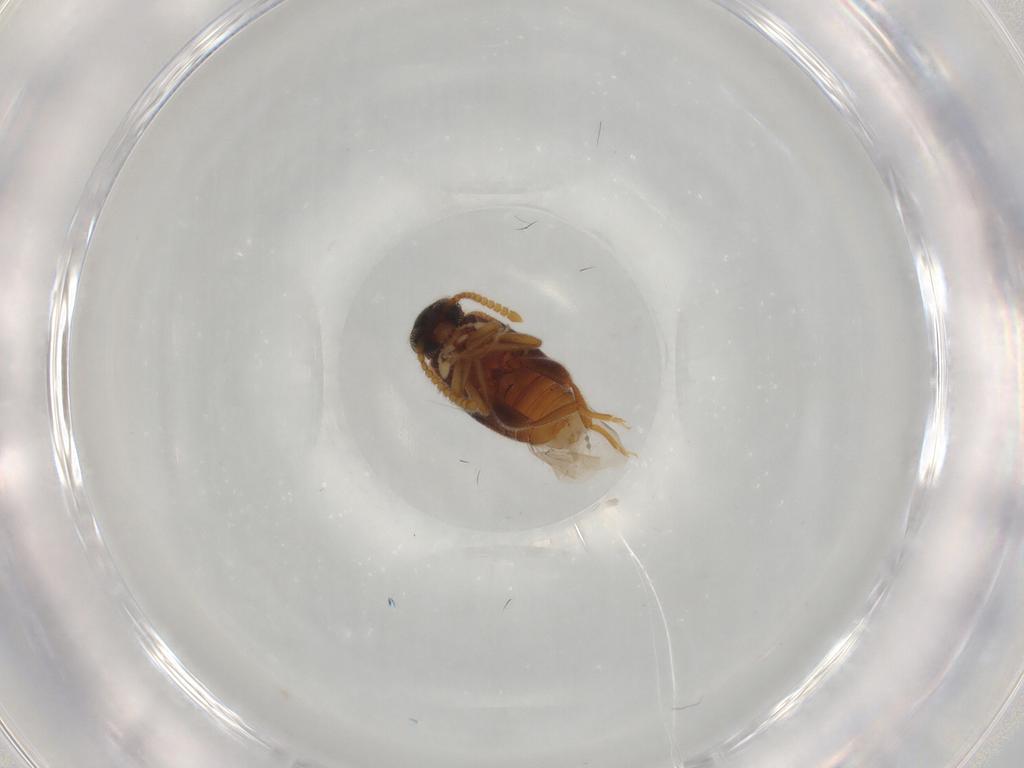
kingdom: Animalia
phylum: Arthropoda
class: Insecta
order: Coleoptera
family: Aderidae
